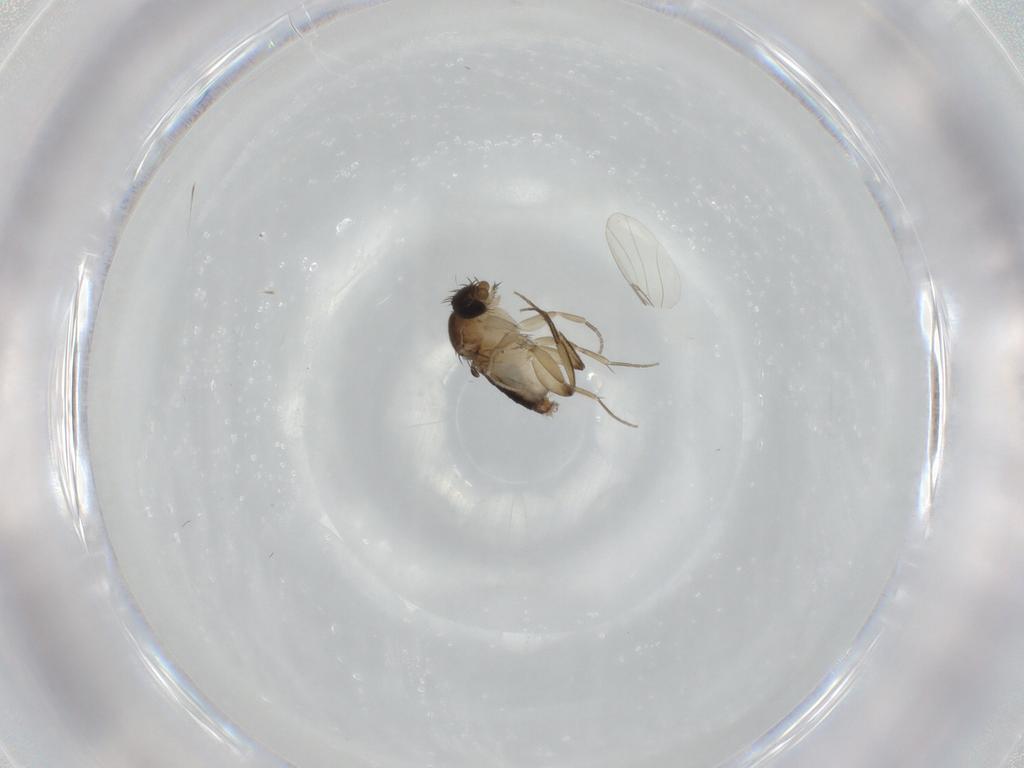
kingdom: Animalia
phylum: Arthropoda
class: Insecta
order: Diptera
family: Phoridae
